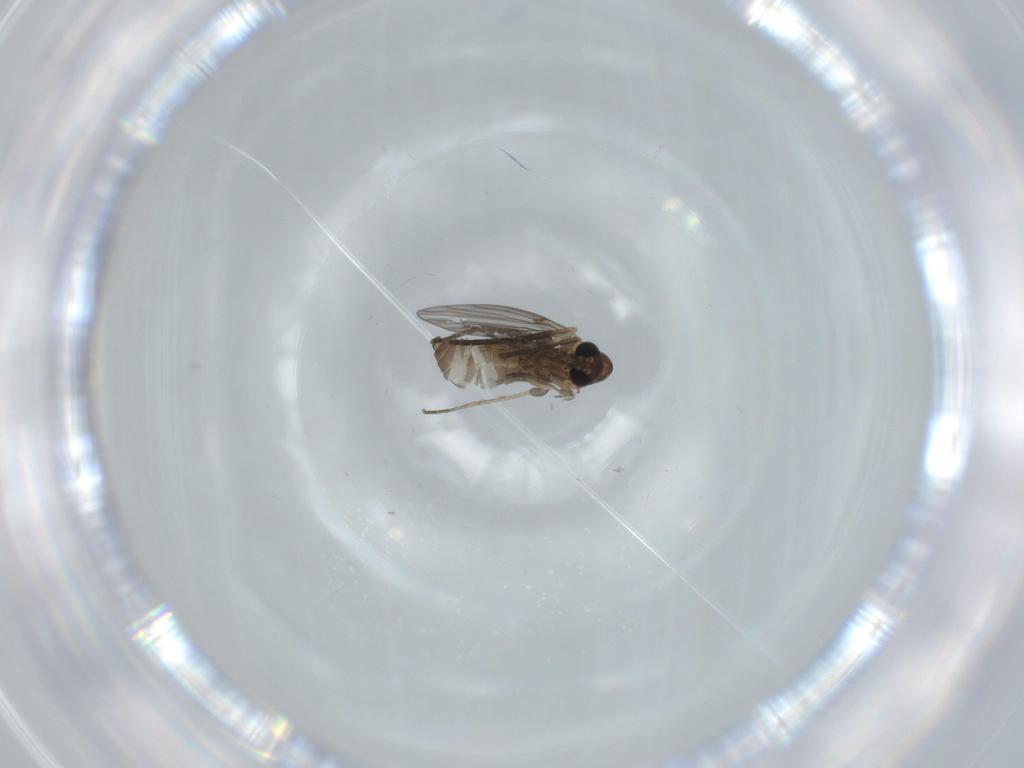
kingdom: Animalia
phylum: Arthropoda
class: Insecta
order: Diptera
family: Psychodidae
